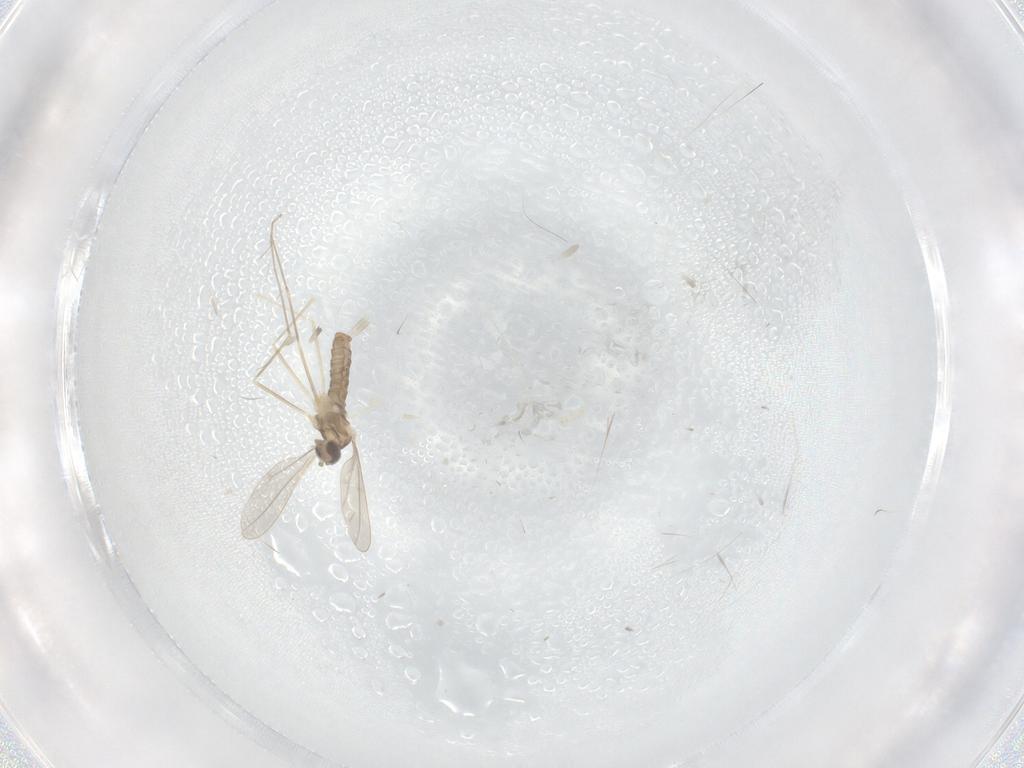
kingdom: Animalia
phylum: Arthropoda
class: Insecta
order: Diptera
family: Cecidomyiidae
